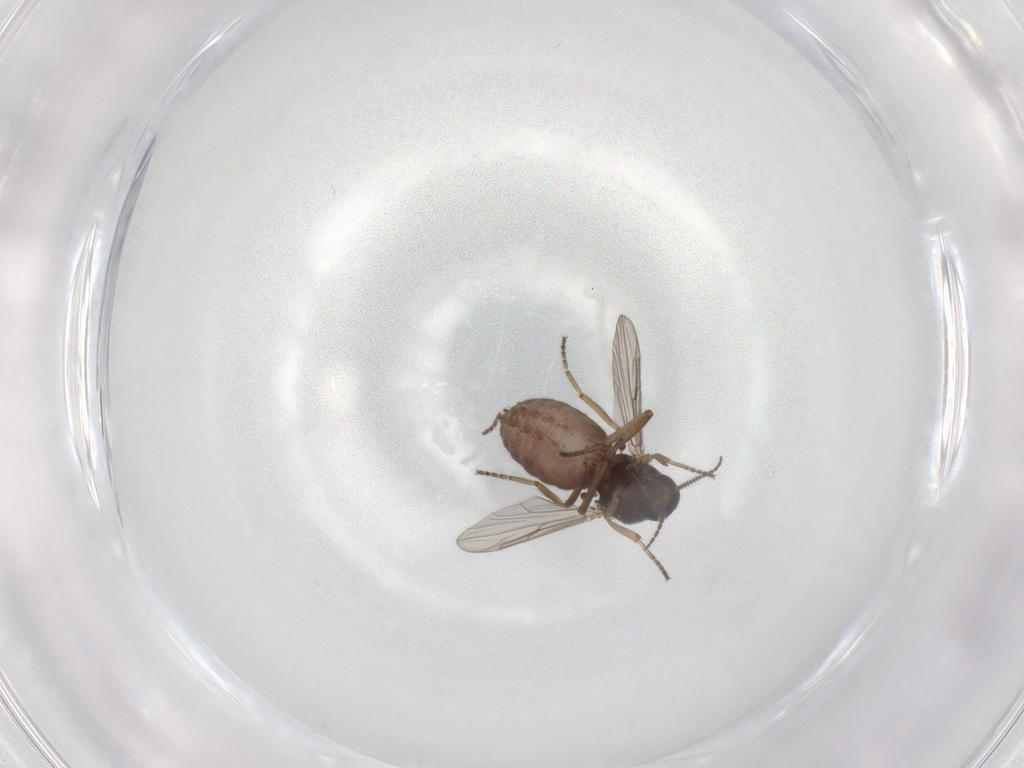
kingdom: Animalia
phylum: Arthropoda
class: Insecta
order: Diptera
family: Ceratopogonidae
